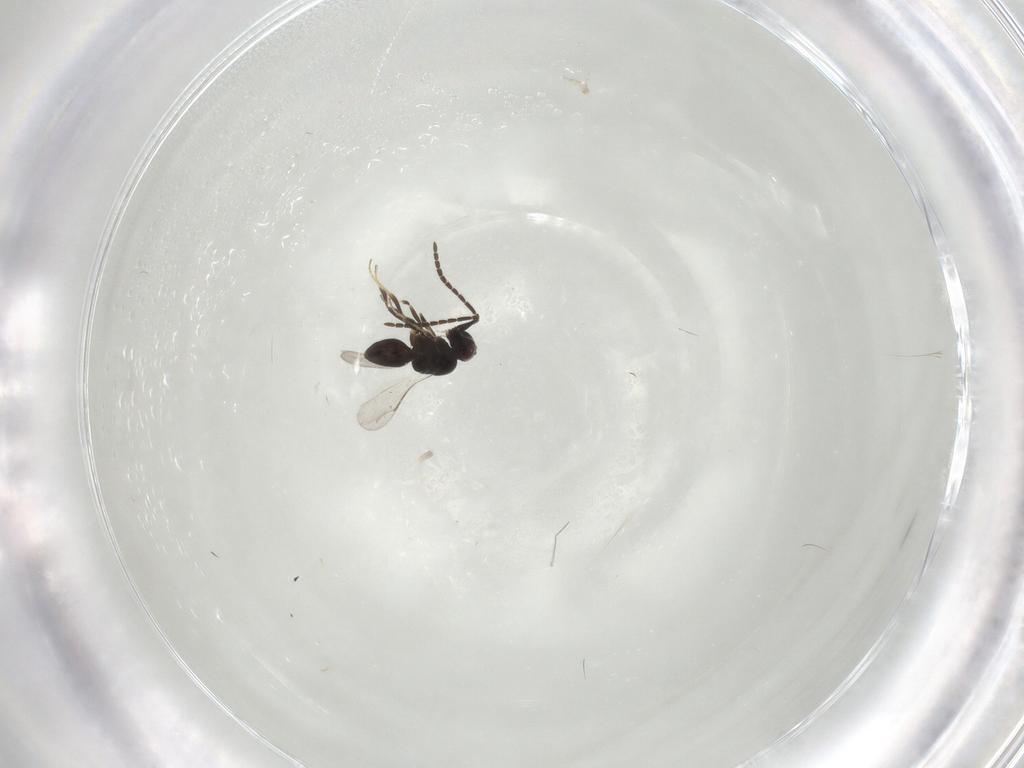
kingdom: Animalia
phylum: Arthropoda
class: Insecta
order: Hymenoptera
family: Ceraphronidae
